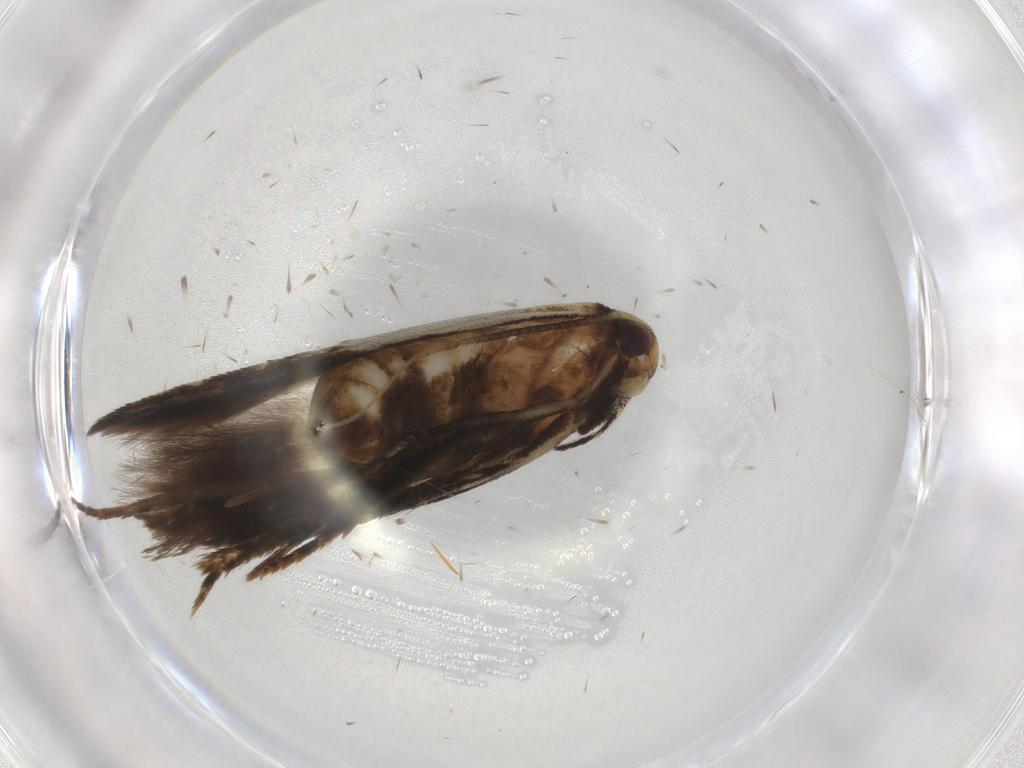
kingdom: Animalia
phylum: Arthropoda
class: Insecta
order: Lepidoptera
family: Cosmopterigidae
